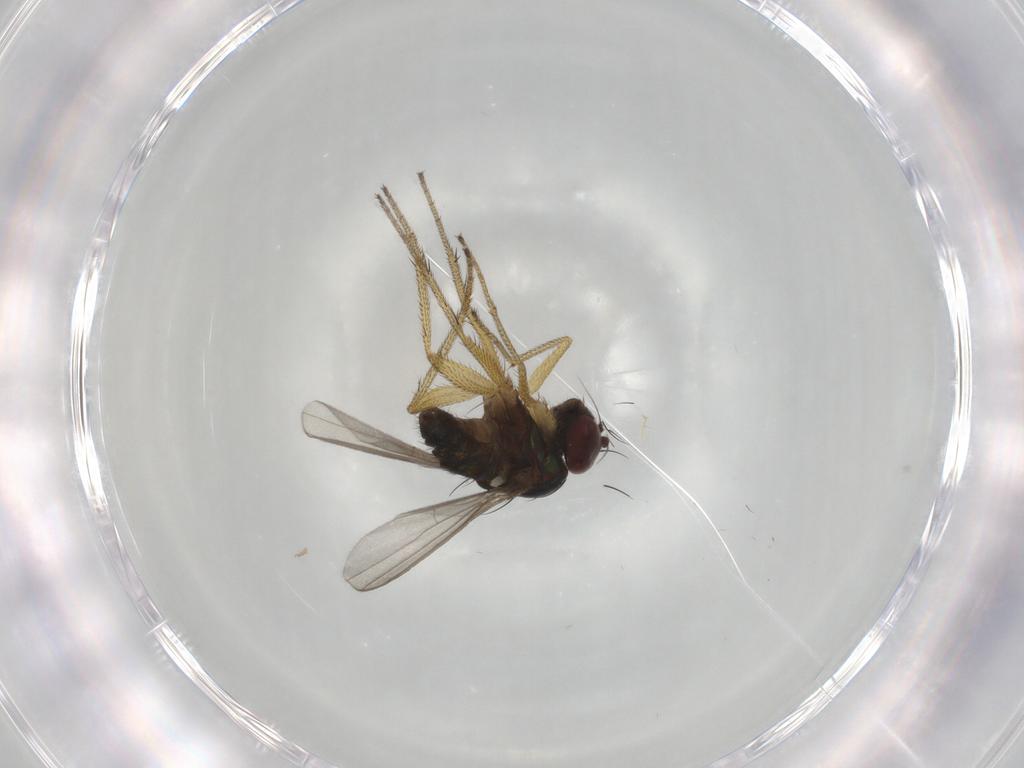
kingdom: Animalia
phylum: Arthropoda
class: Insecta
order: Diptera
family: Dolichopodidae
